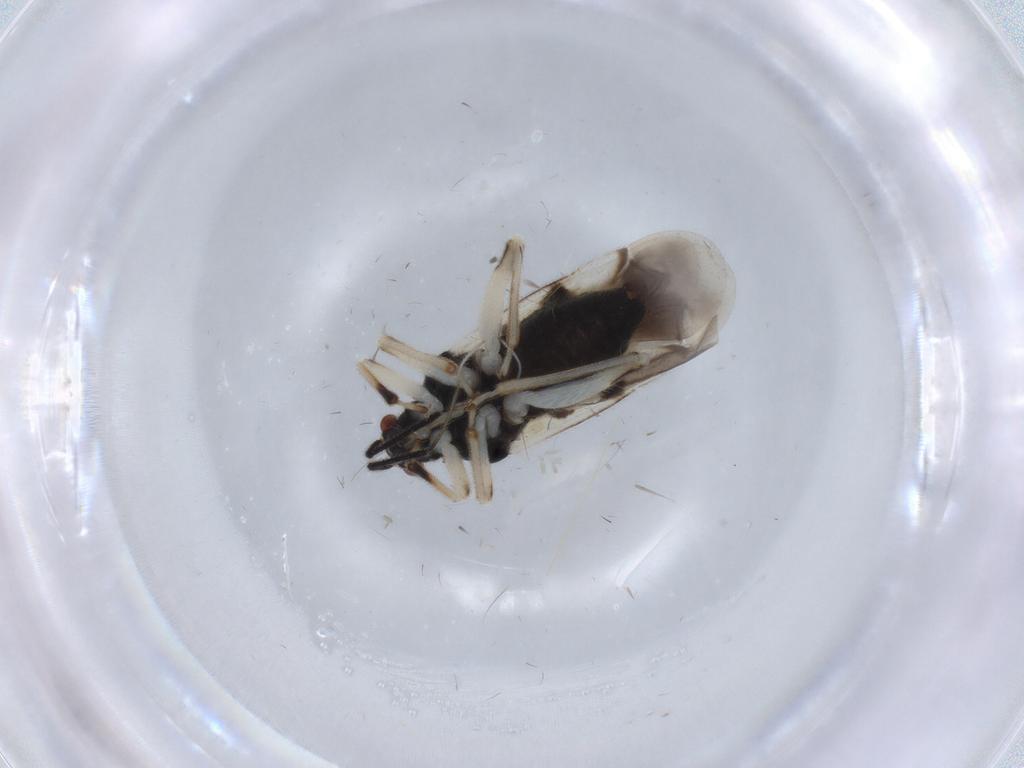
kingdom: Animalia
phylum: Arthropoda
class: Insecta
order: Hemiptera
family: Miridae
